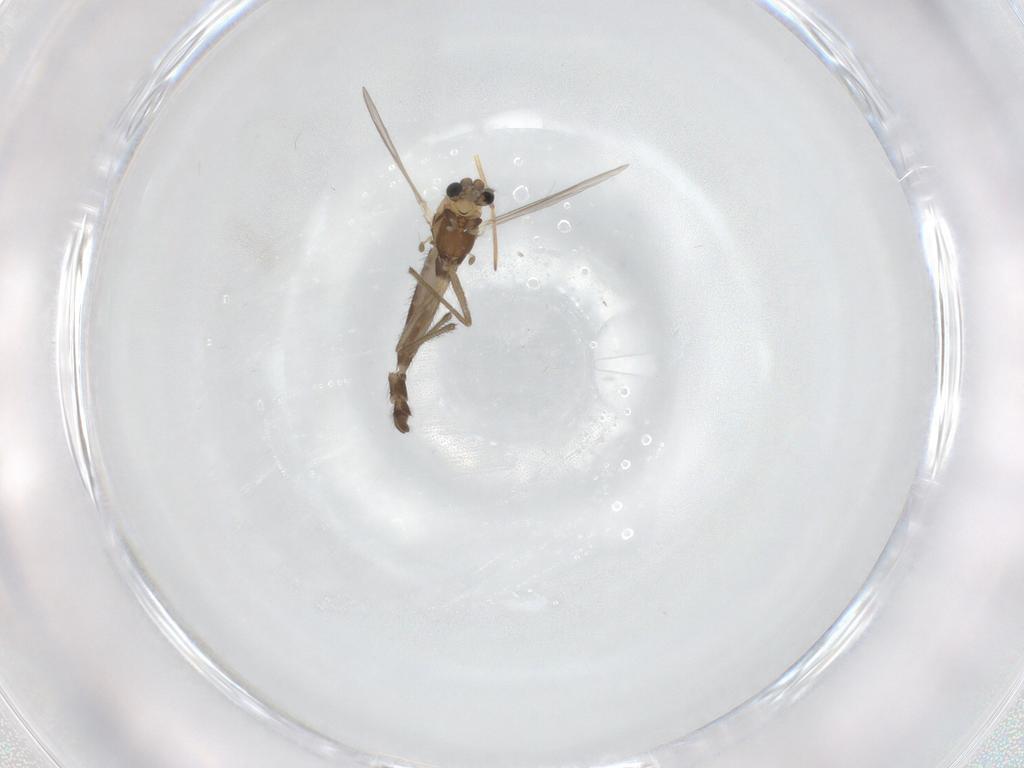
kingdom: Animalia
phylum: Arthropoda
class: Insecta
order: Diptera
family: Chironomidae
